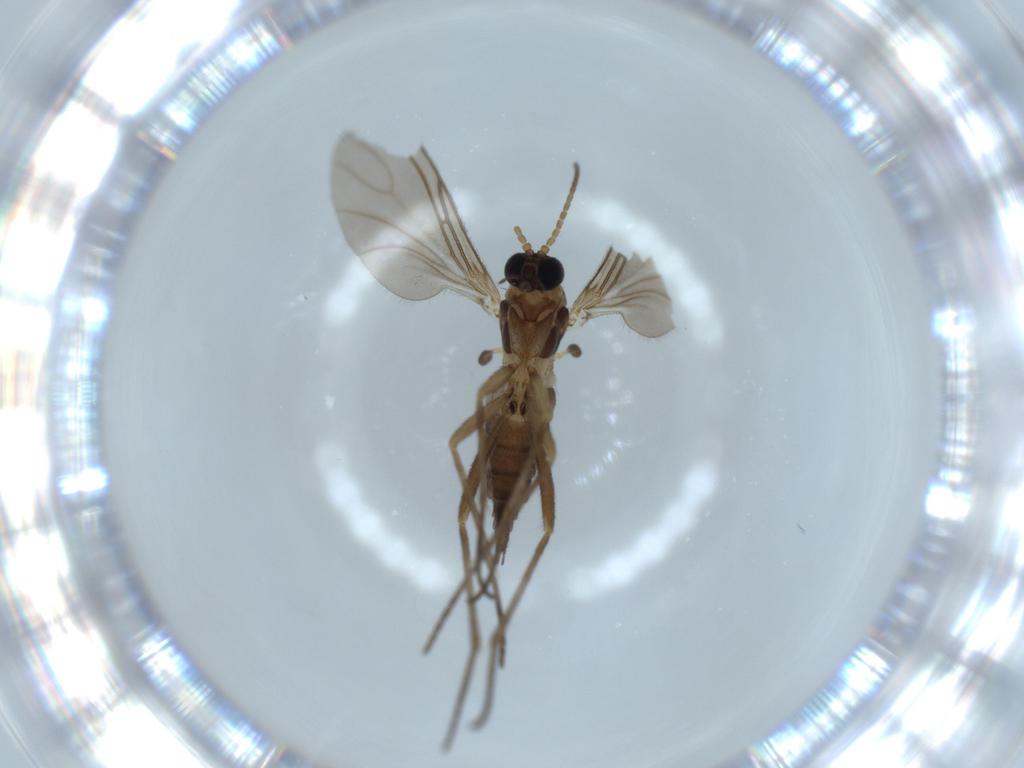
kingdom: Animalia
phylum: Arthropoda
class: Insecta
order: Diptera
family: Sciaridae
